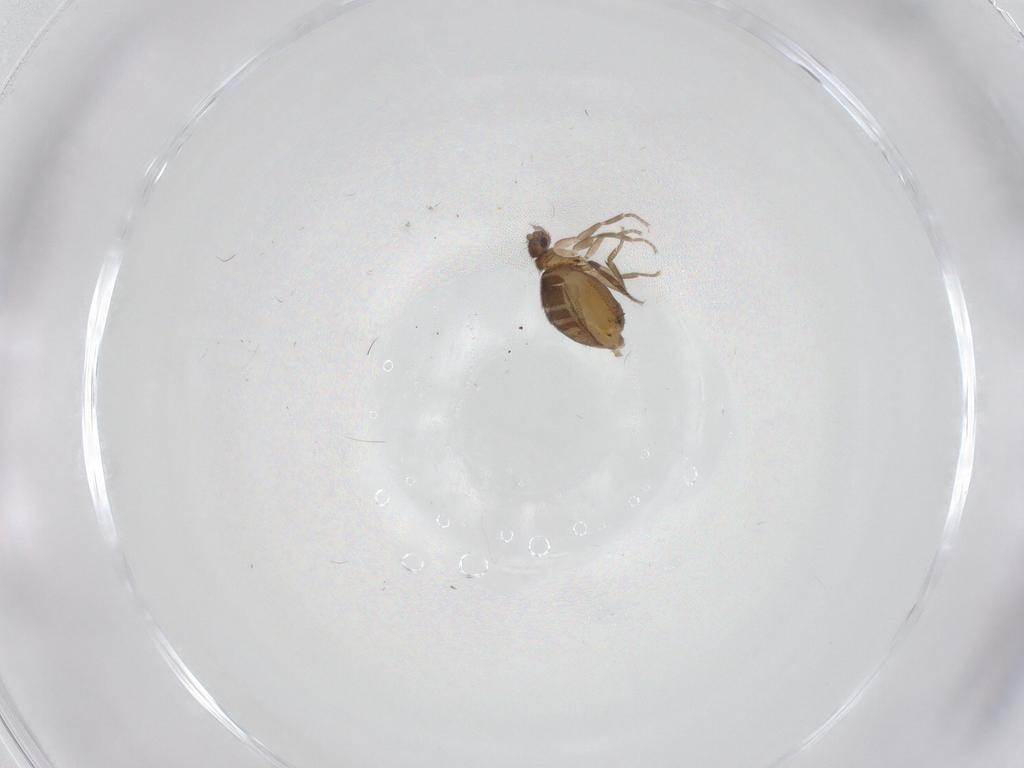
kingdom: Animalia
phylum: Arthropoda
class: Insecta
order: Diptera
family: Phoridae
